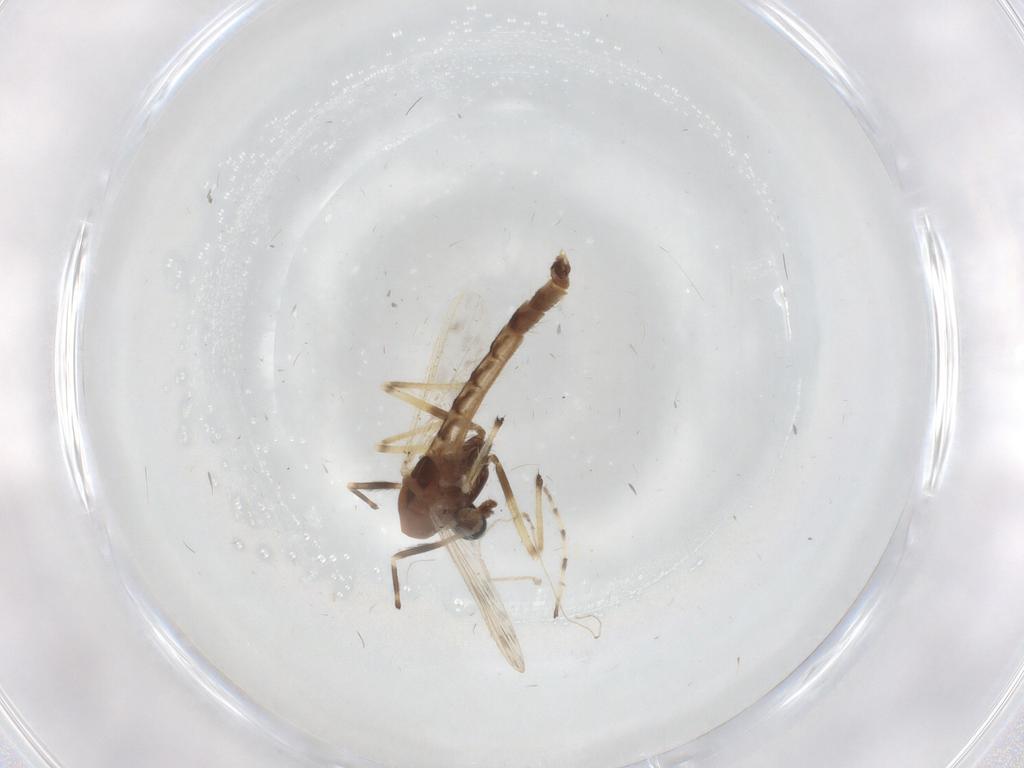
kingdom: Animalia
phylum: Arthropoda
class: Insecta
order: Diptera
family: Chironomidae
